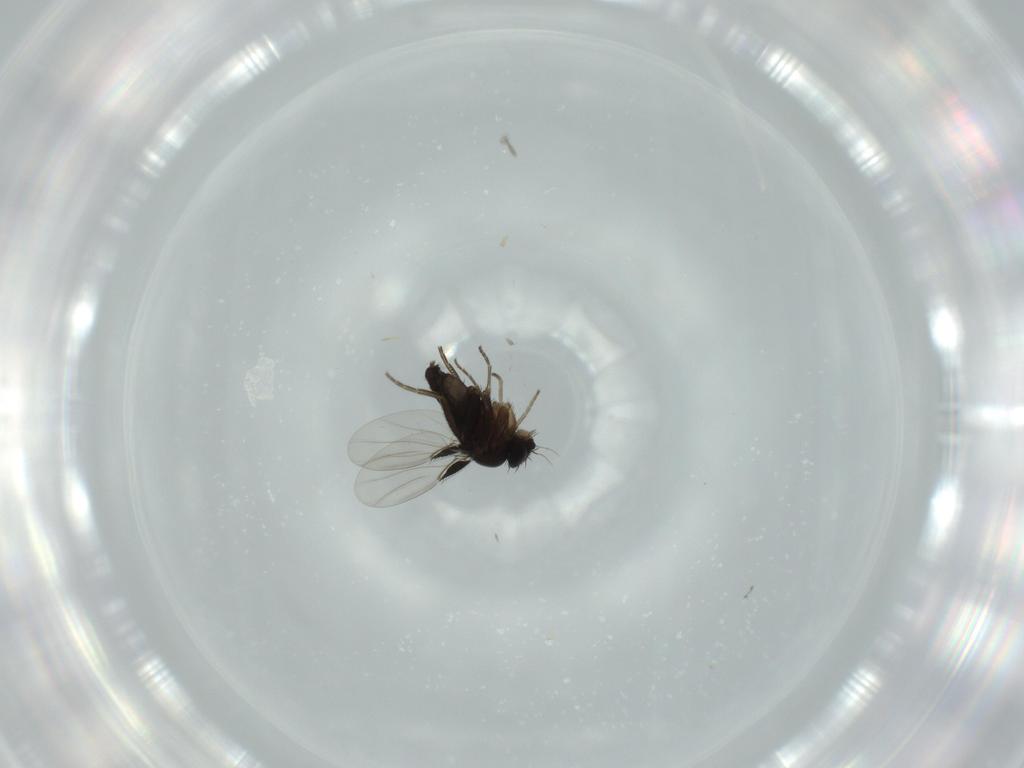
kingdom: Animalia
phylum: Arthropoda
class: Insecta
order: Diptera
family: Phoridae
